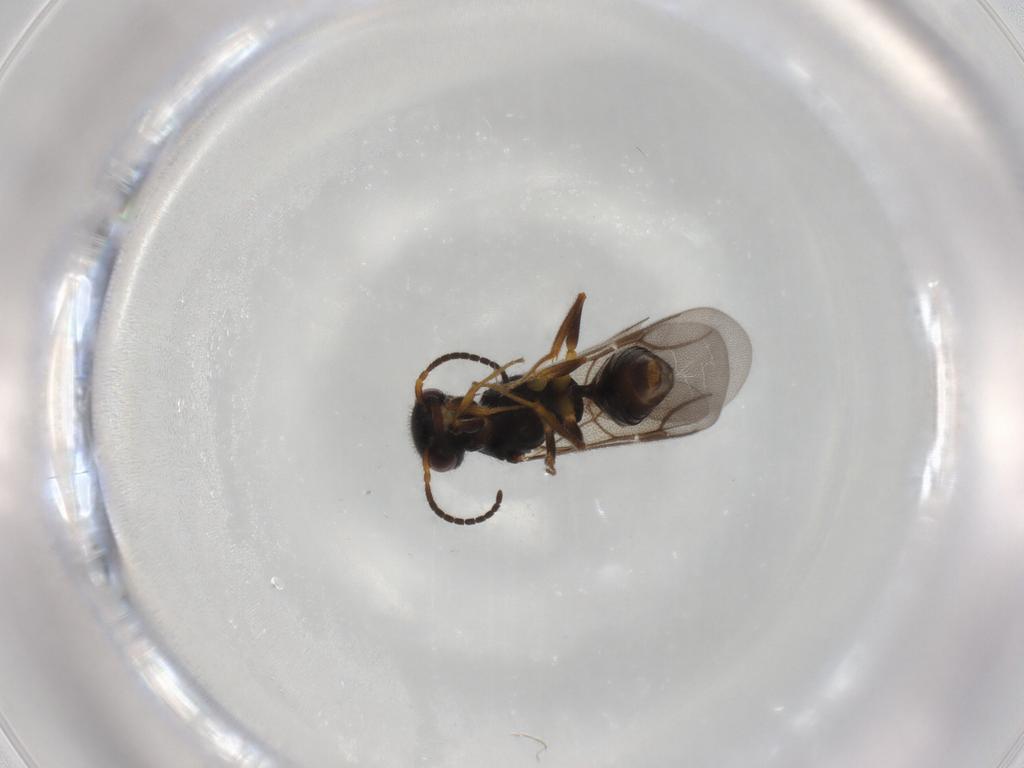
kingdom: Animalia
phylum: Arthropoda
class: Insecta
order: Hymenoptera
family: Bethylidae
